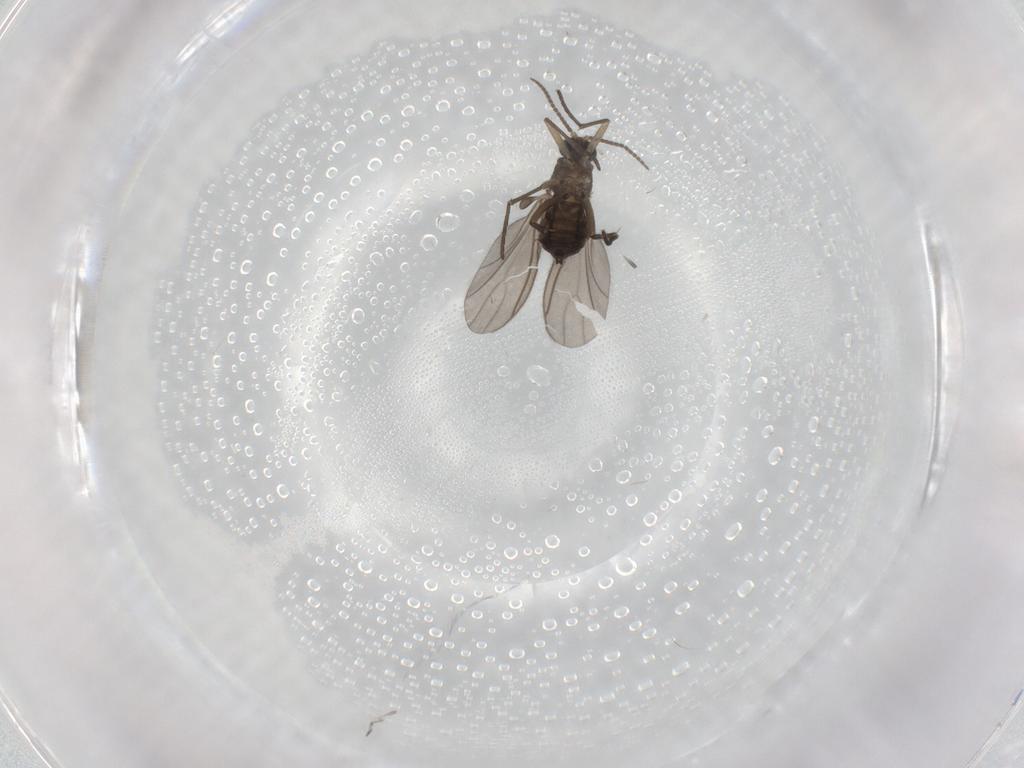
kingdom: Animalia
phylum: Arthropoda
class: Insecta
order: Diptera
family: Sciaridae
